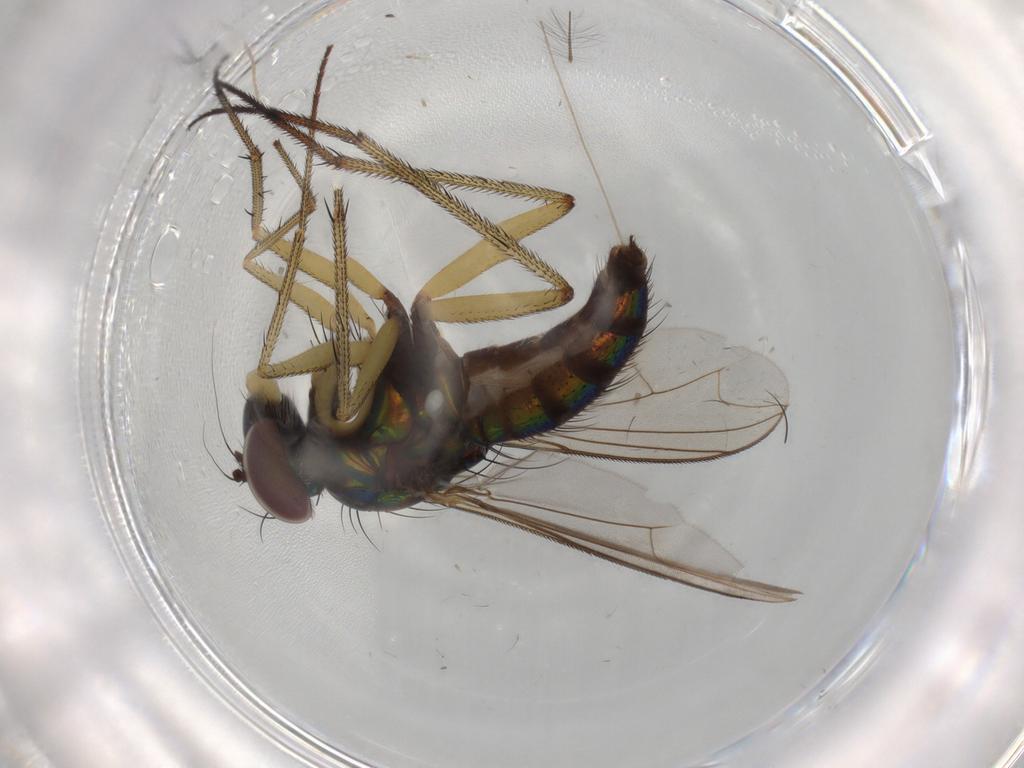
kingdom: Animalia
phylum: Arthropoda
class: Insecta
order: Diptera
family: Dolichopodidae
